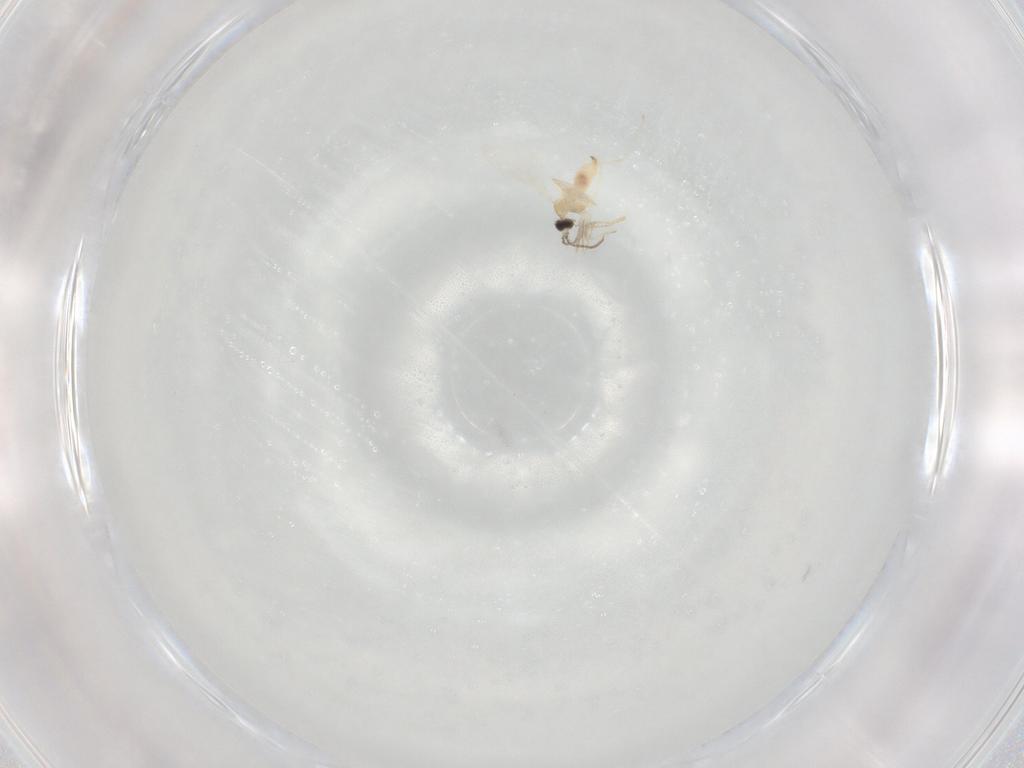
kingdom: Animalia
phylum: Arthropoda
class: Insecta
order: Diptera
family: Cecidomyiidae
